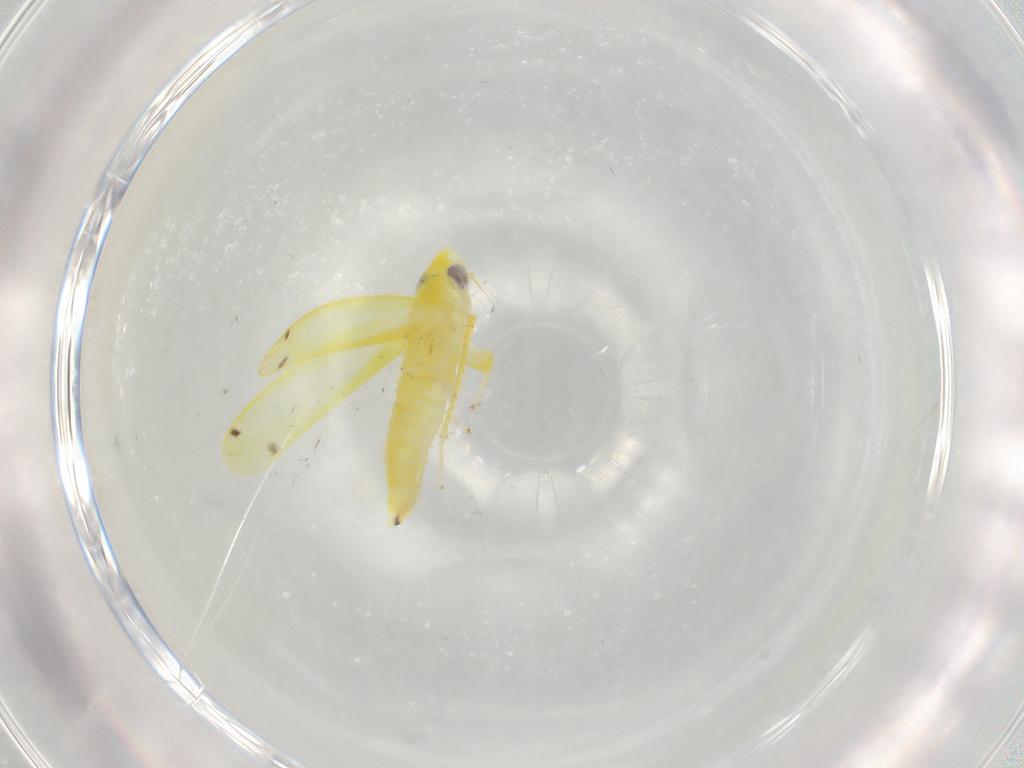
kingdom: Animalia
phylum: Arthropoda
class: Insecta
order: Hemiptera
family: Cicadellidae
